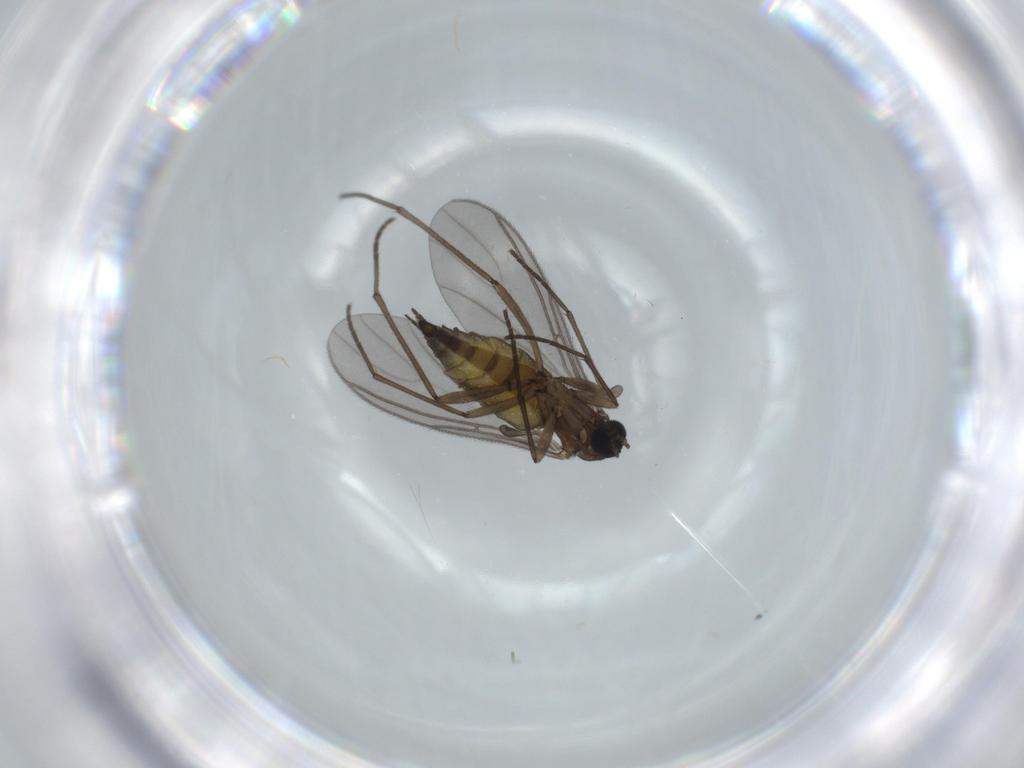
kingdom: Animalia
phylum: Arthropoda
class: Insecta
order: Diptera
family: Sciaridae
